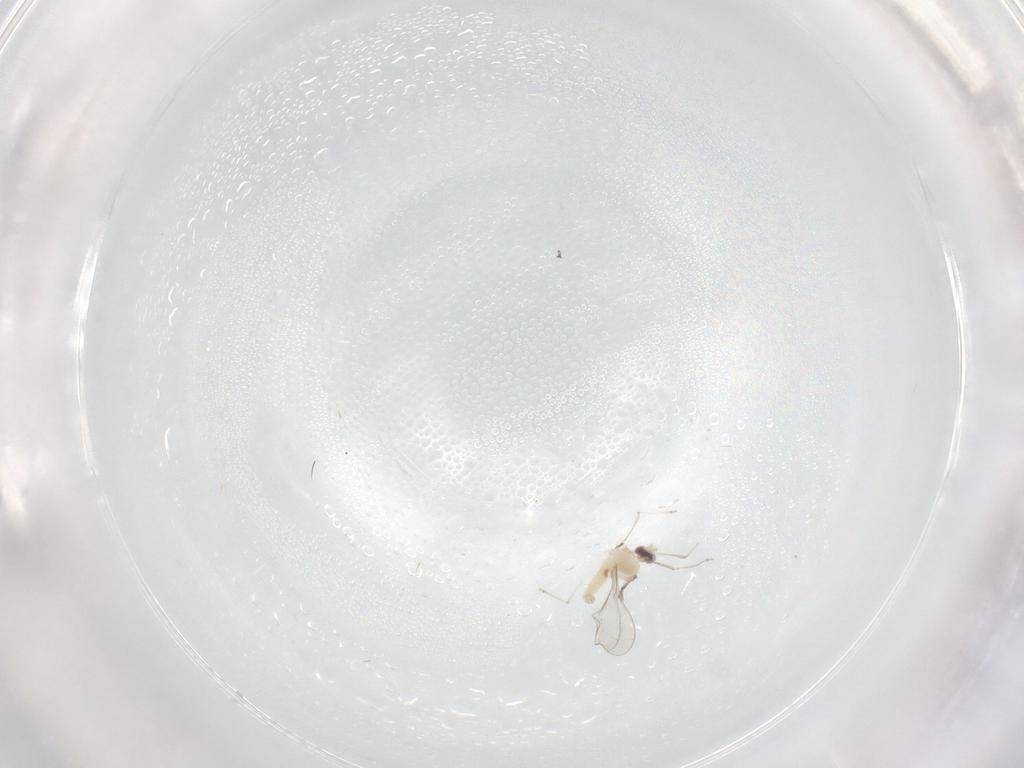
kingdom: Animalia
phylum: Arthropoda
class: Insecta
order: Diptera
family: Cecidomyiidae
